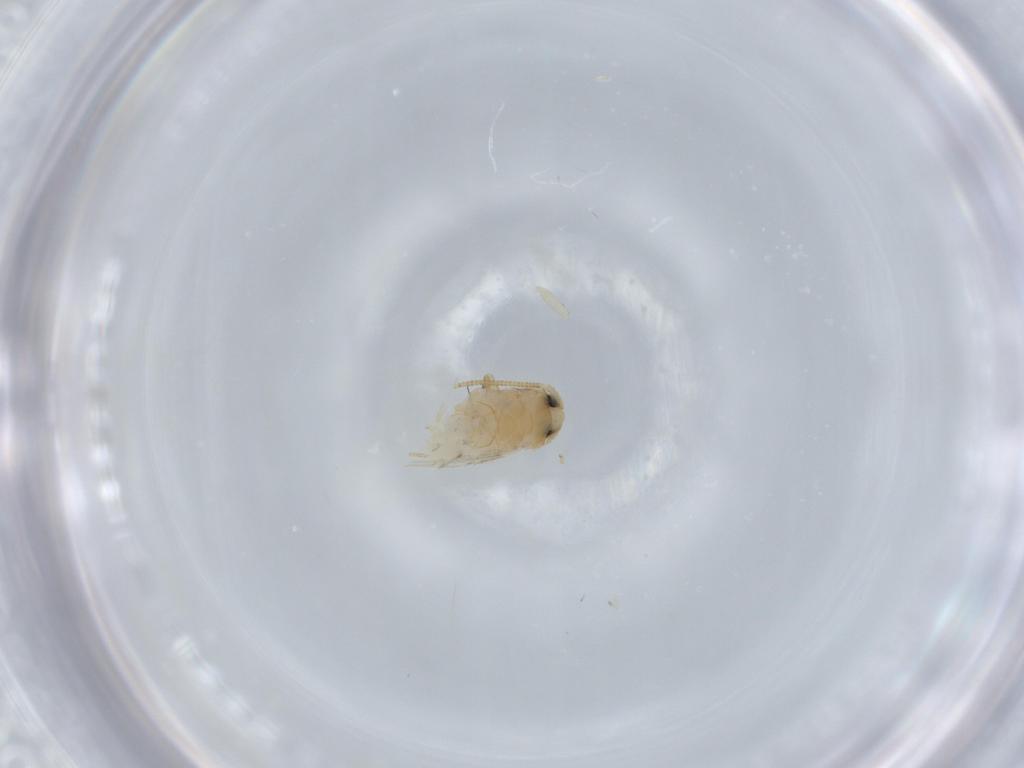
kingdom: Animalia
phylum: Arthropoda
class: Insecta
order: Lepidoptera
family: Nepticulidae
